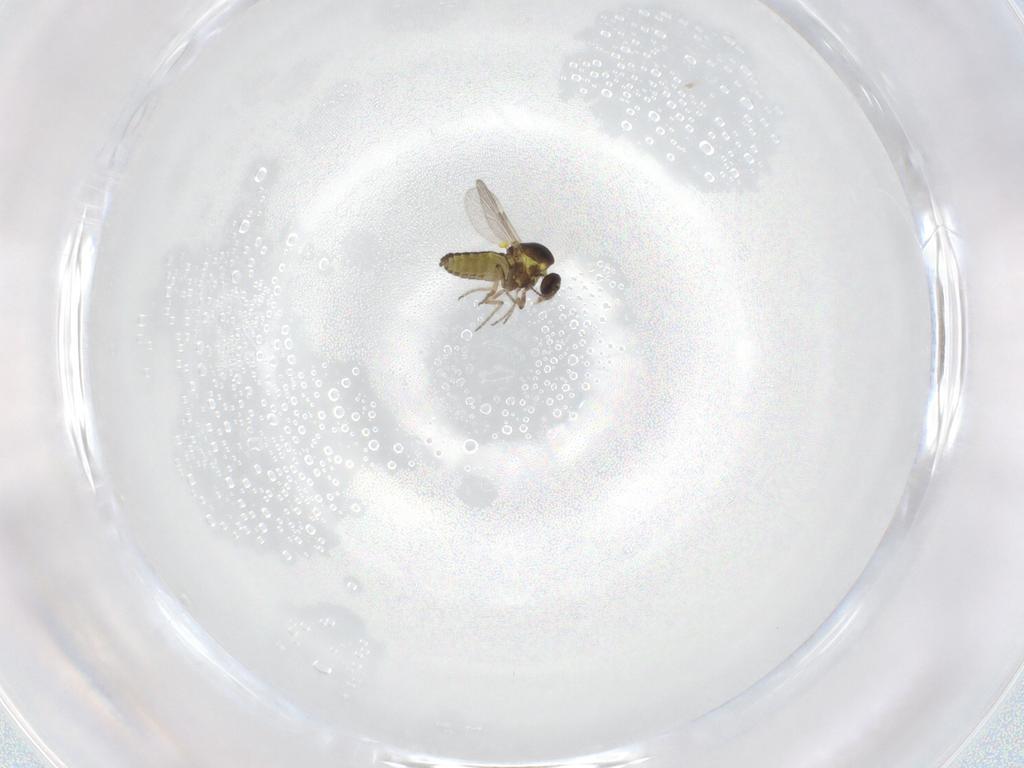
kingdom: Animalia
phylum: Arthropoda
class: Insecta
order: Diptera
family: Ceratopogonidae
